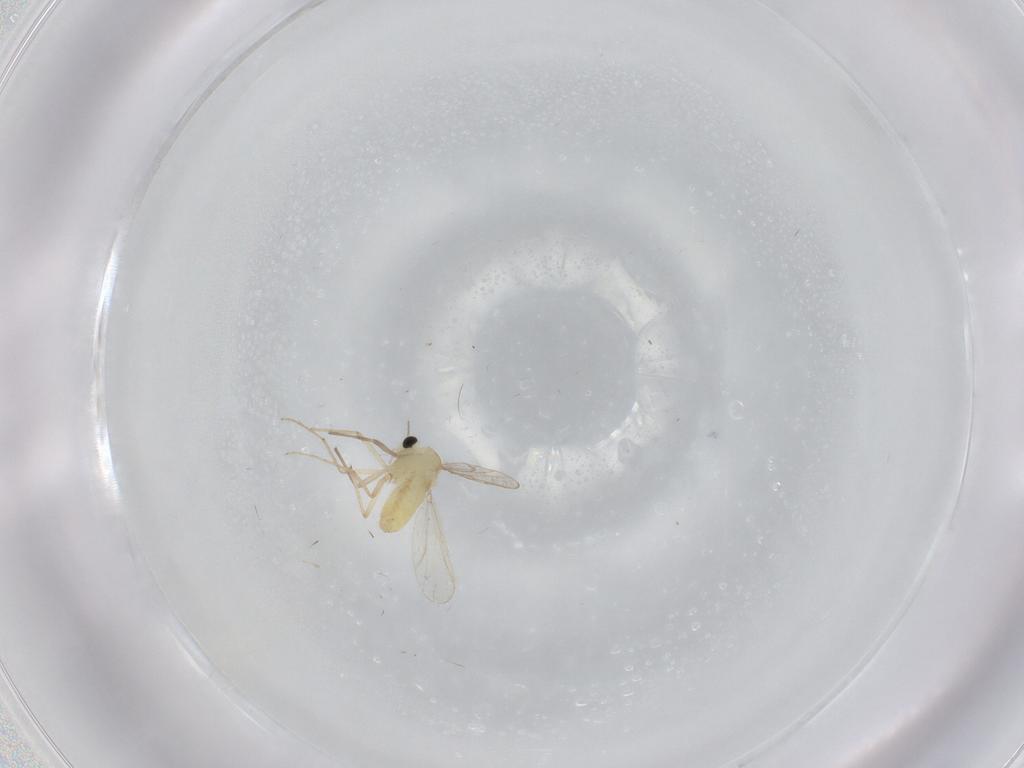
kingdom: Animalia
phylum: Arthropoda
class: Insecta
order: Diptera
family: Chironomidae
